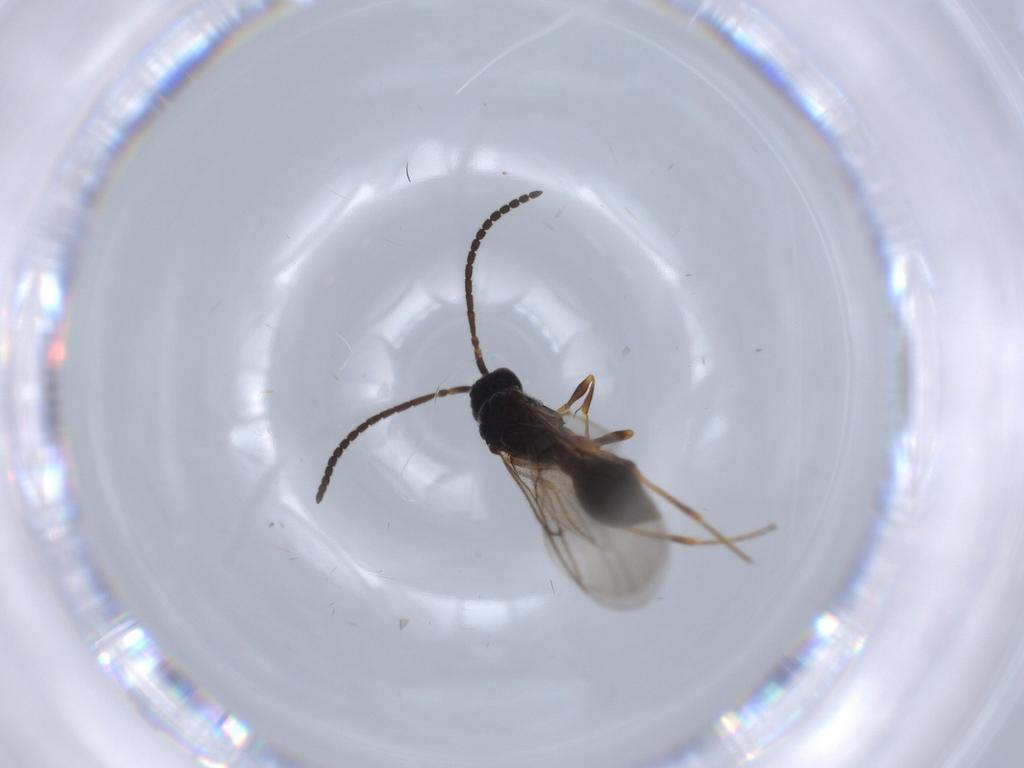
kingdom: Animalia
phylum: Arthropoda
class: Insecta
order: Hymenoptera
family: Diapriidae
